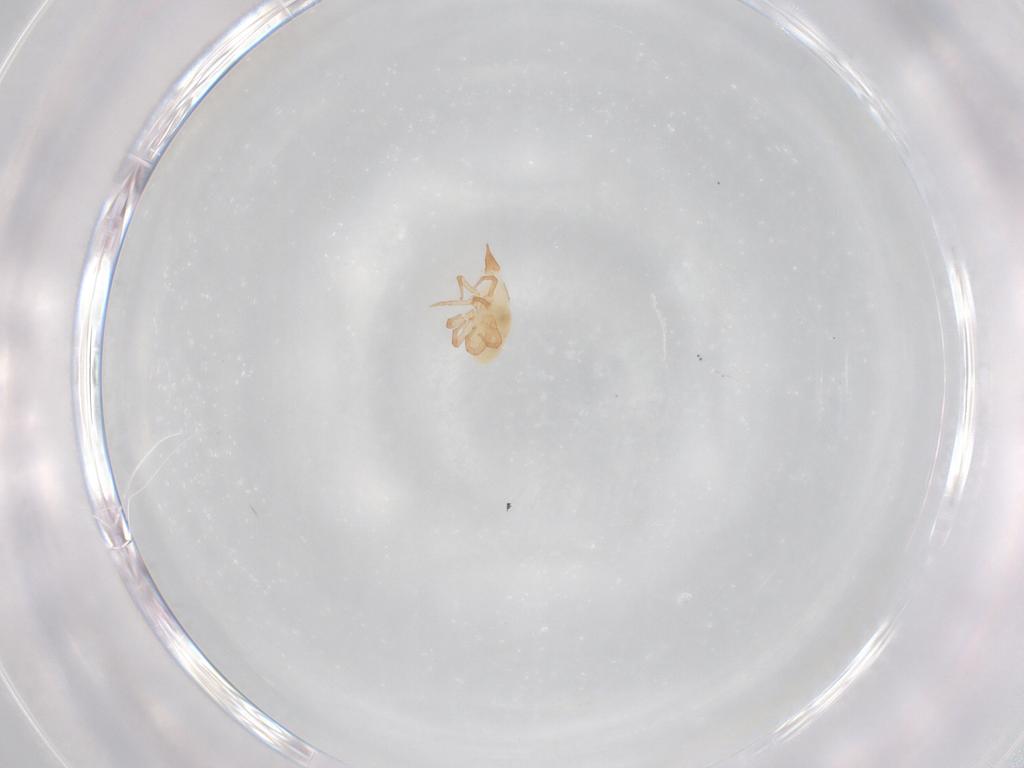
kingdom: Animalia
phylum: Arthropoda
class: Arachnida
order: Trombidiformes
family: Bdellidae
